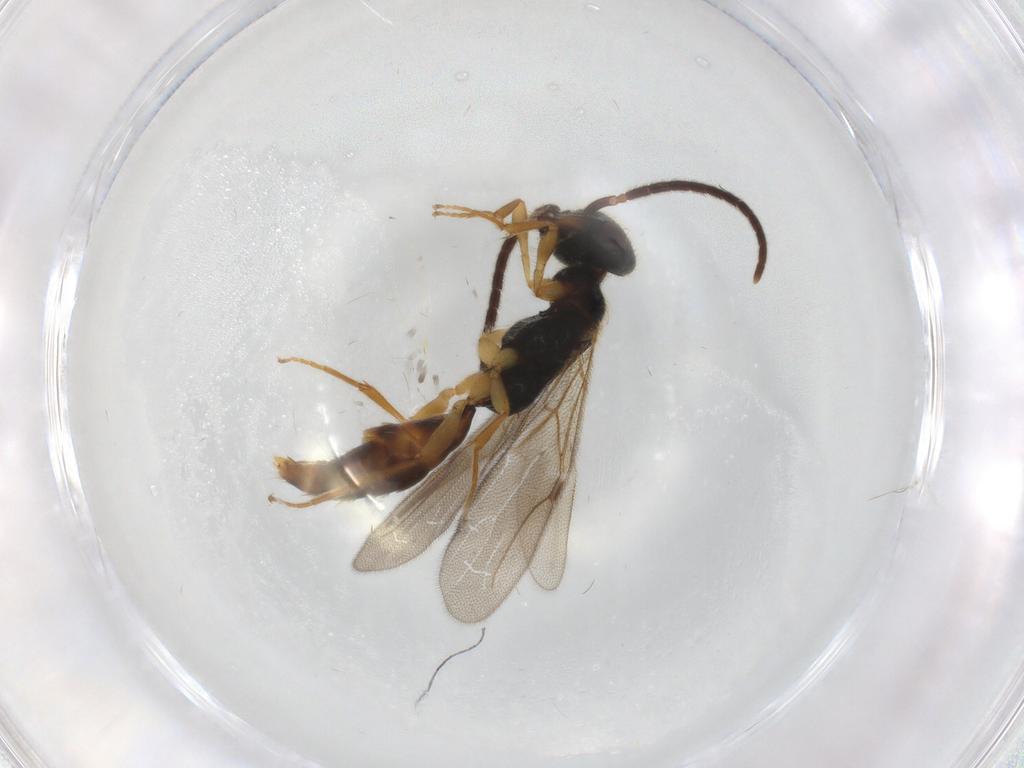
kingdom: Animalia
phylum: Arthropoda
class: Insecta
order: Hymenoptera
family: Bethylidae
